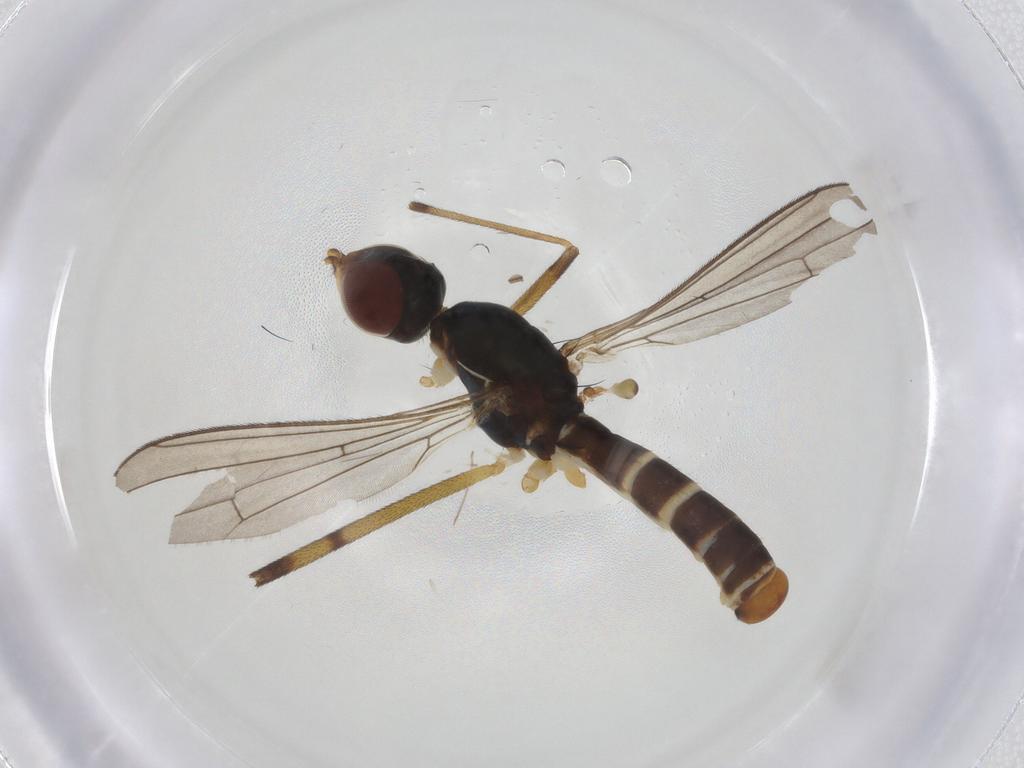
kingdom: Animalia
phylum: Arthropoda
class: Insecta
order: Diptera
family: Micropezidae
